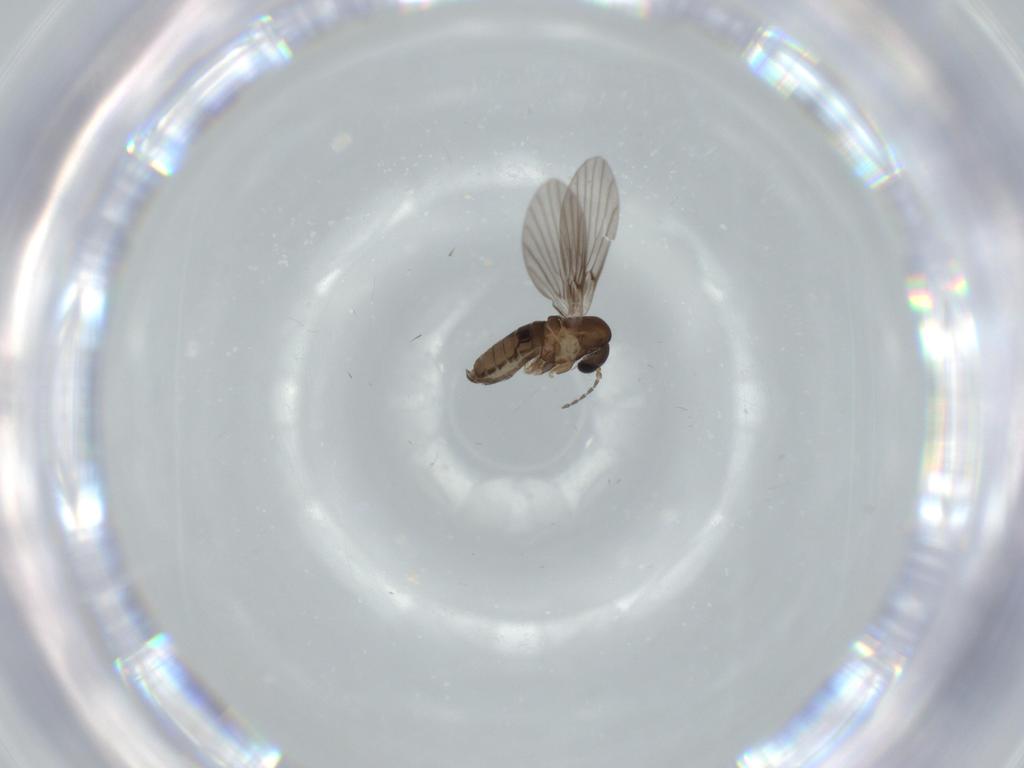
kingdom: Animalia
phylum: Arthropoda
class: Insecta
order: Diptera
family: Psychodidae
